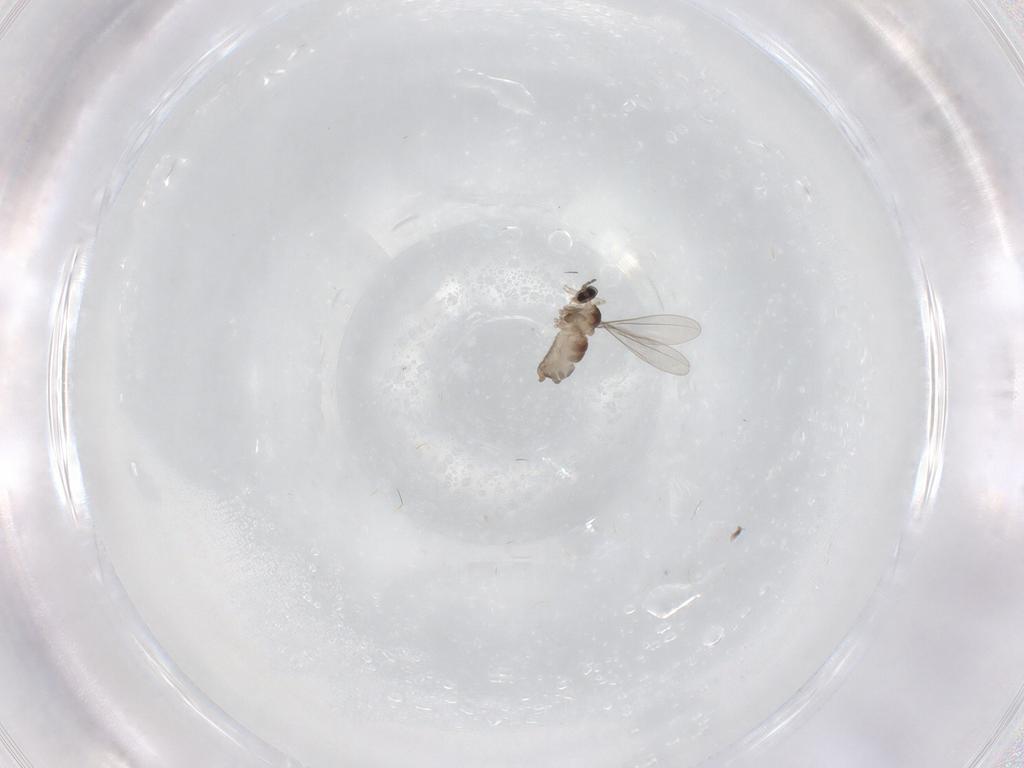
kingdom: Animalia
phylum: Arthropoda
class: Insecta
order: Diptera
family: Cecidomyiidae
